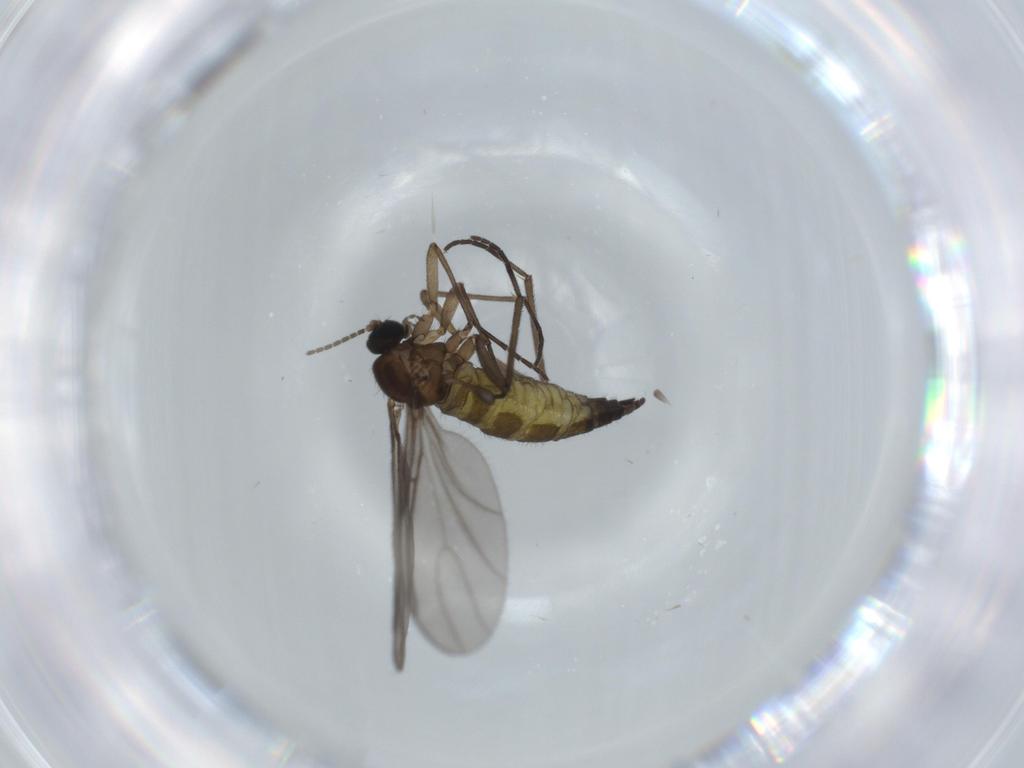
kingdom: Animalia
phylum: Arthropoda
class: Insecta
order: Diptera
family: Sciaridae
